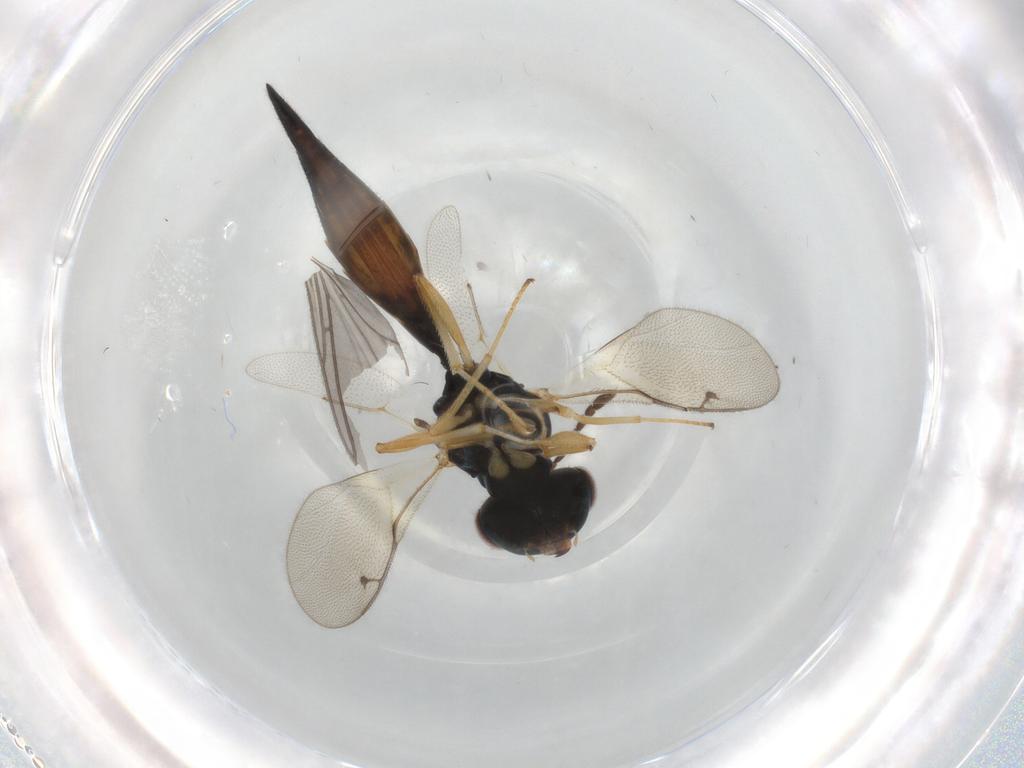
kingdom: Animalia
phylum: Arthropoda
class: Insecta
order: Hymenoptera
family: Pteromalidae
